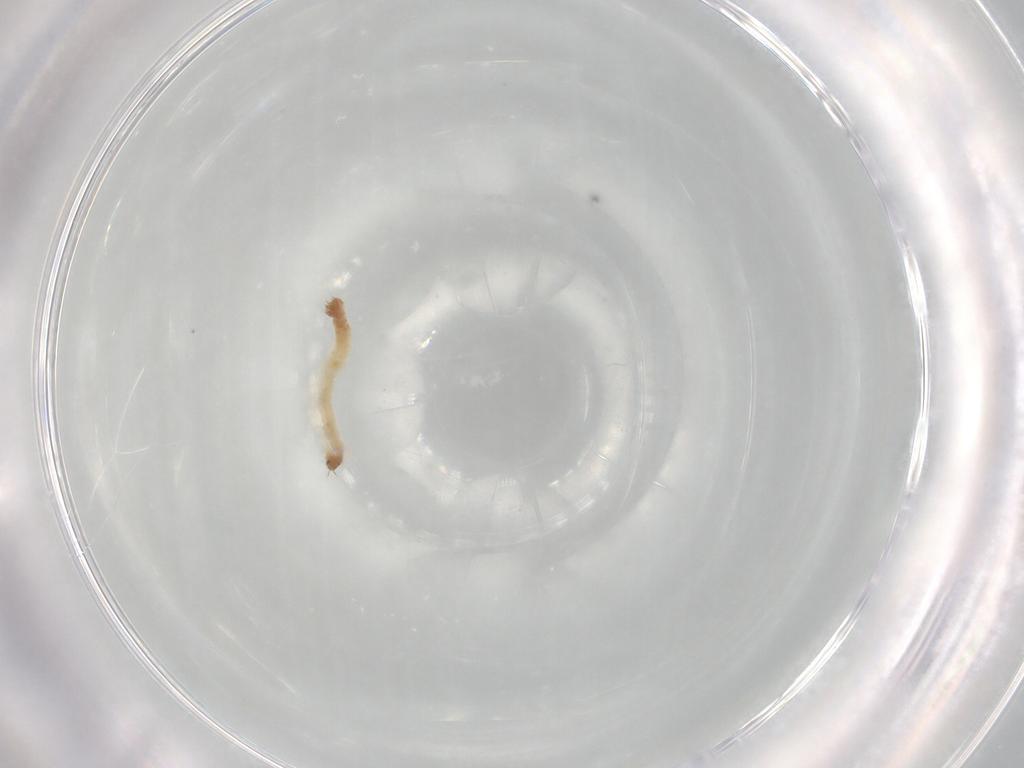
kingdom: Animalia
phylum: Arthropoda
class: Insecta
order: Diptera
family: Chironomidae
